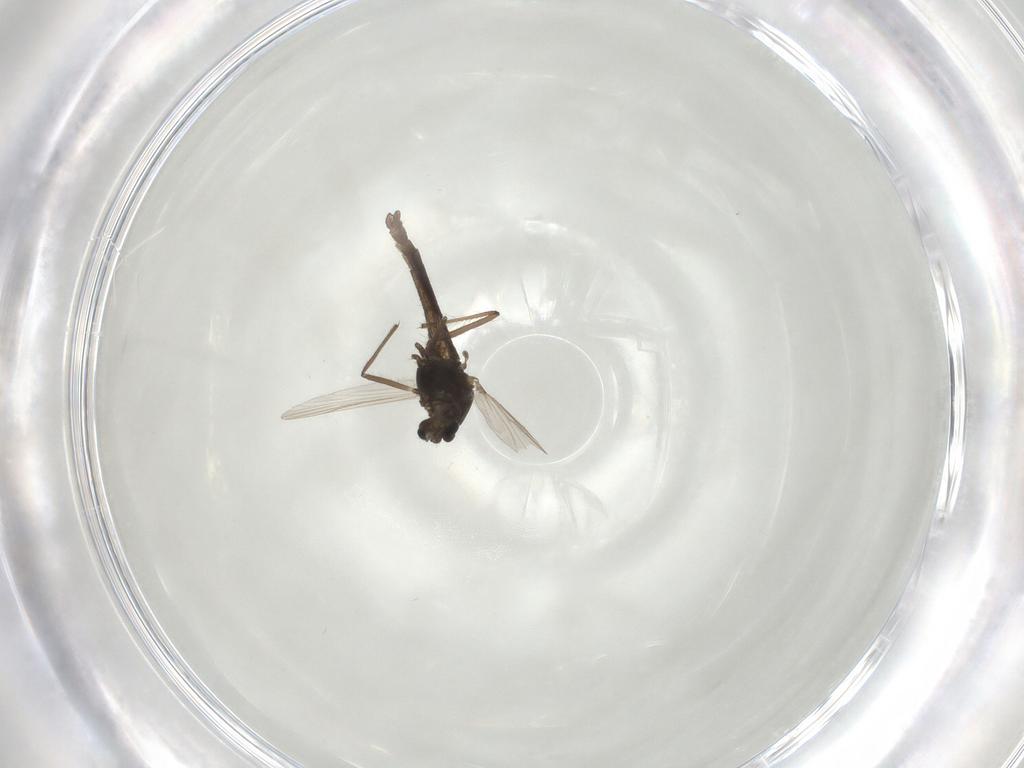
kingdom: Animalia
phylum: Arthropoda
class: Insecta
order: Diptera
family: Chironomidae
